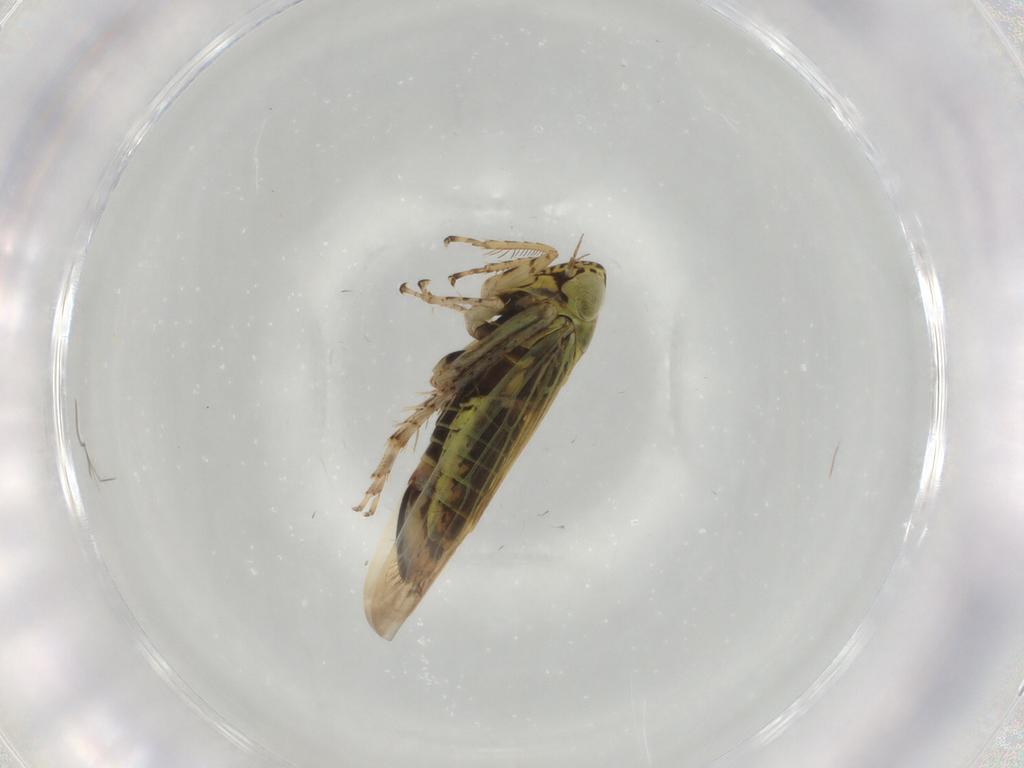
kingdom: Animalia
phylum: Arthropoda
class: Insecta
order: Hemiptera
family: Cicadellidae
